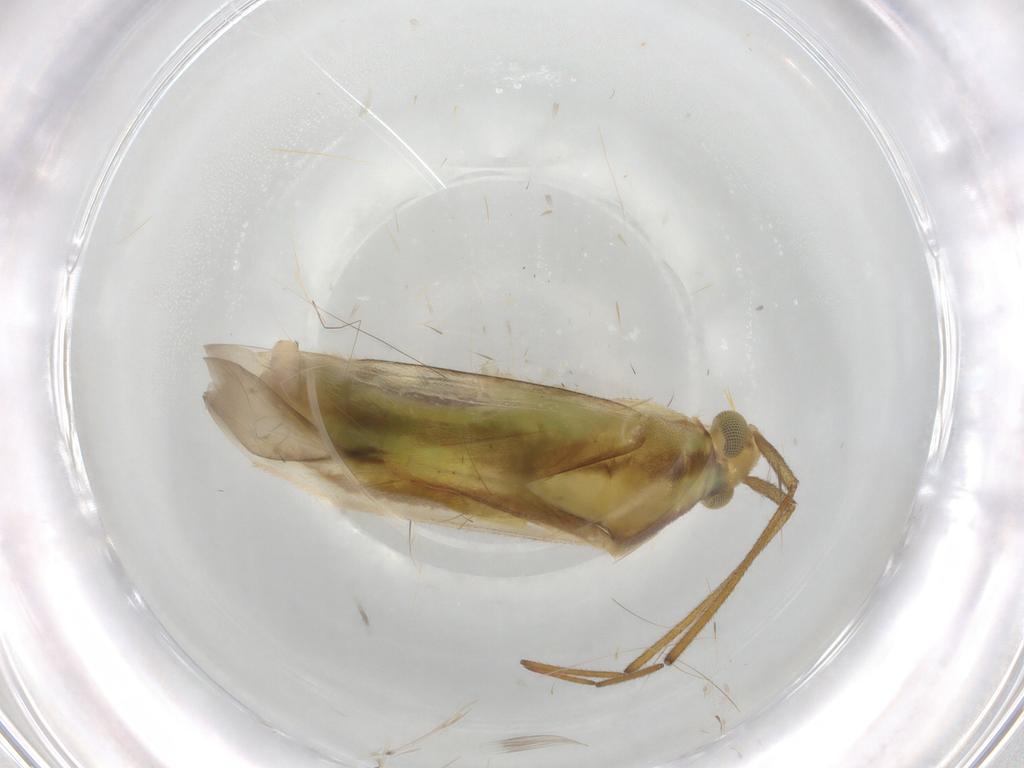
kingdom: Animalia
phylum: Arthropoda
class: Insecta
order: Hemiptera
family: Miridae
